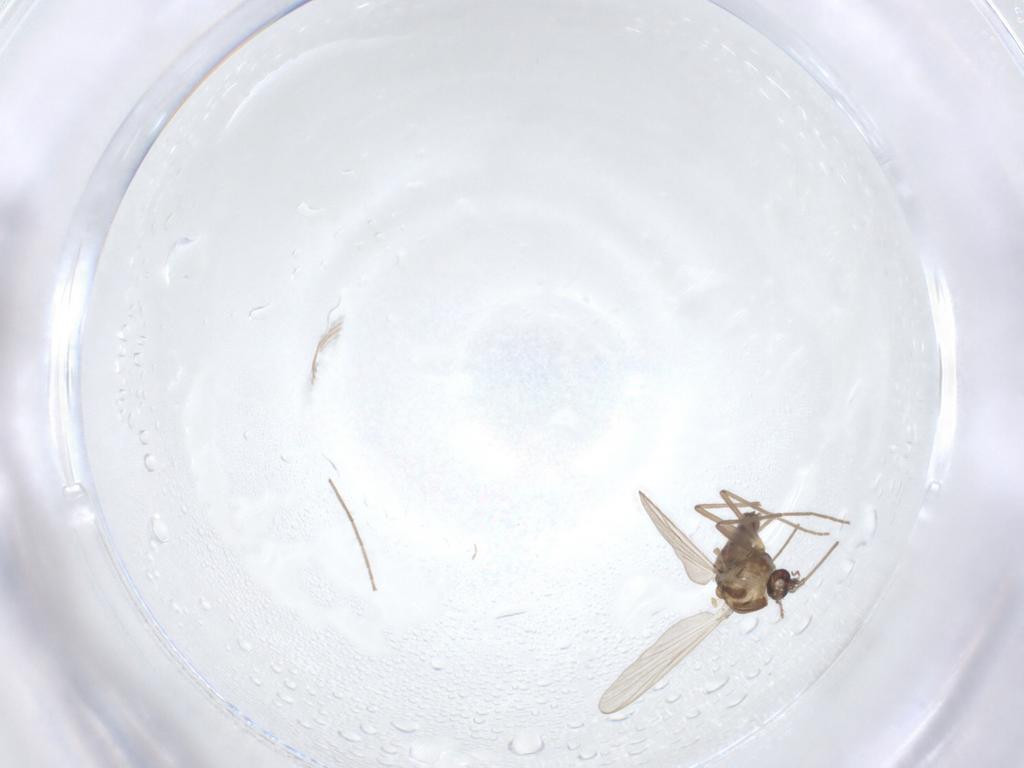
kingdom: Animalia
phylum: Arthropoda
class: Insecta
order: Diptera
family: Chironomidae
